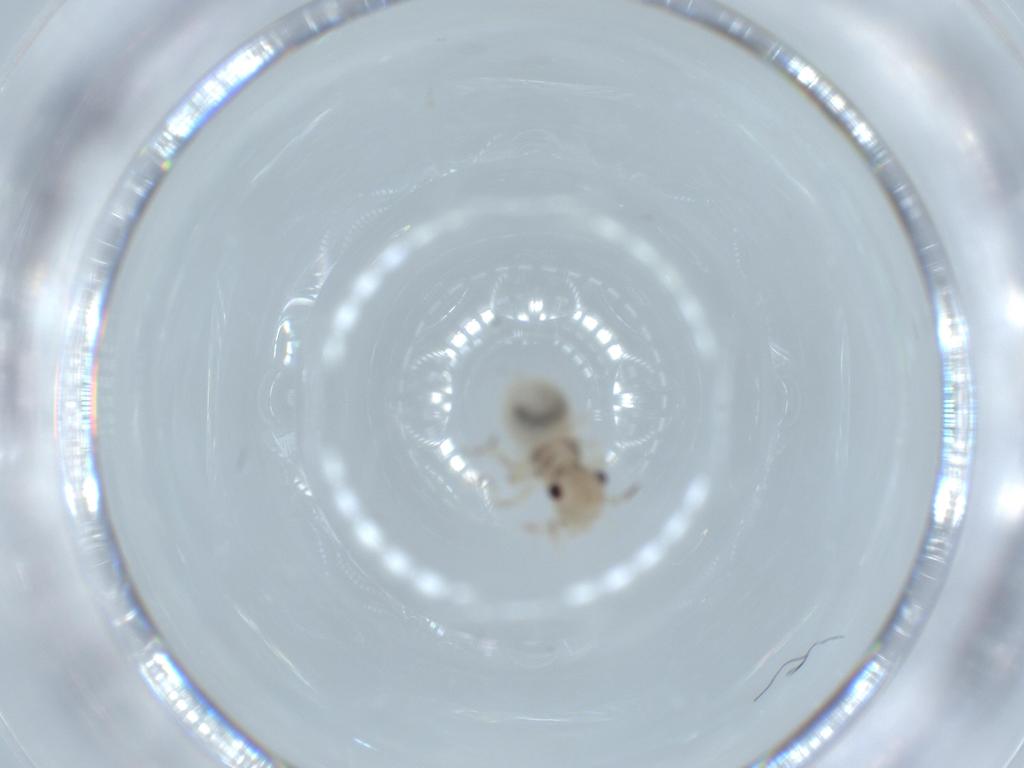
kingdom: Animalia
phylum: Arthropoda
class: Insecta
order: Psocodea
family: Amphipsocidae
